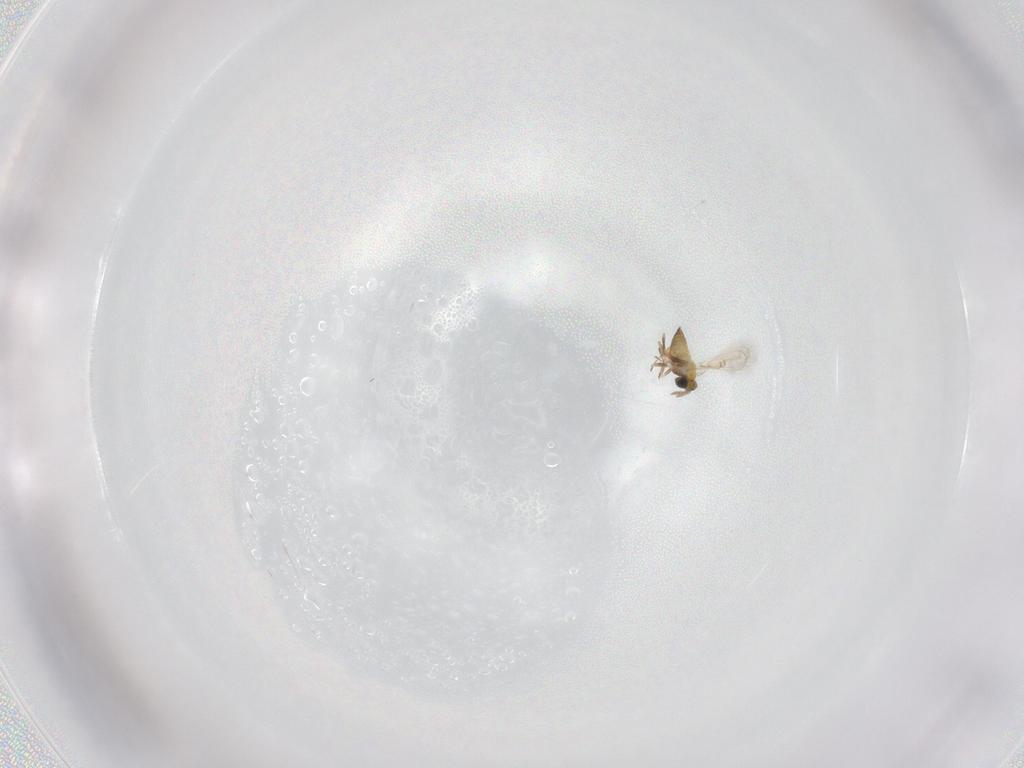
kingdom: Animalia
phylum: Arthropoda
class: Insecta
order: Hymenoptera
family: Trichogrammatidae
